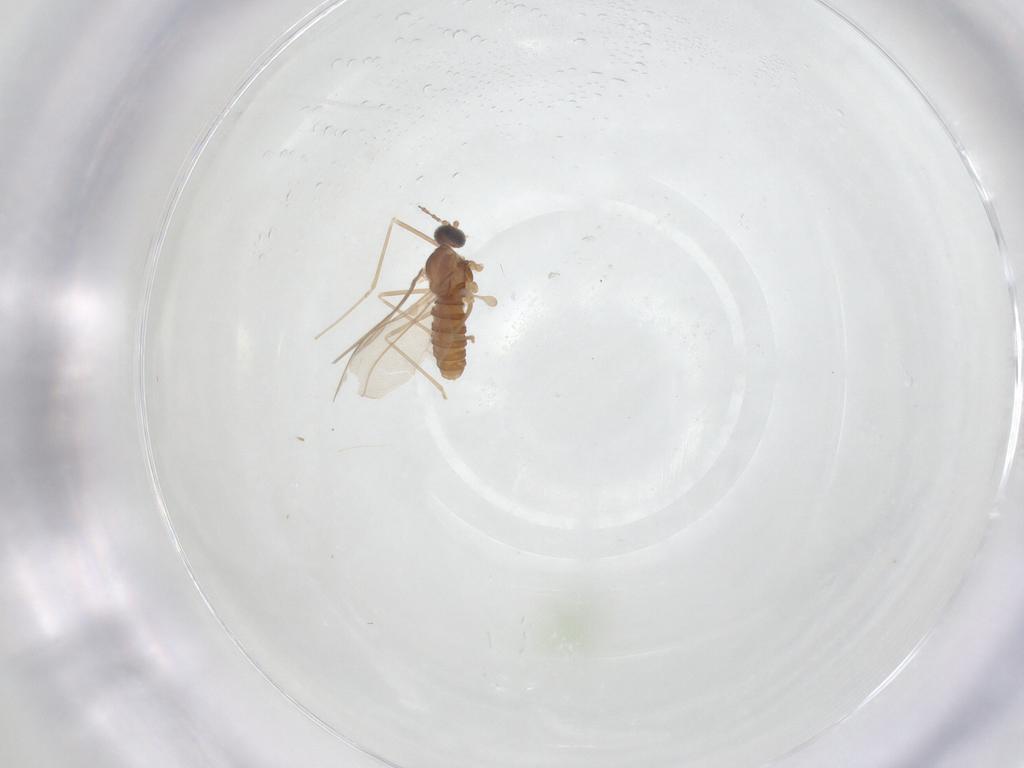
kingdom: Animalia
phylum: Arthropoda
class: Insecta
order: Diptera
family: Cecidomyiidae
